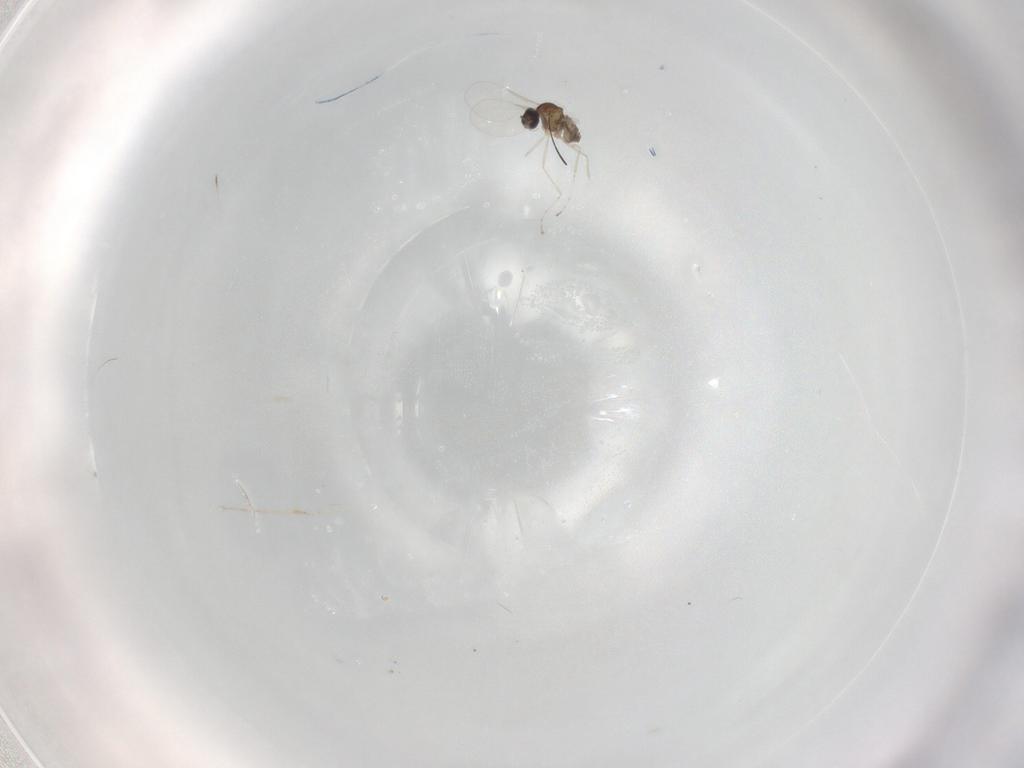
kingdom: Animalia
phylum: Arthropoda
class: Insecta
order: Diptera
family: Cecidomyiidae
